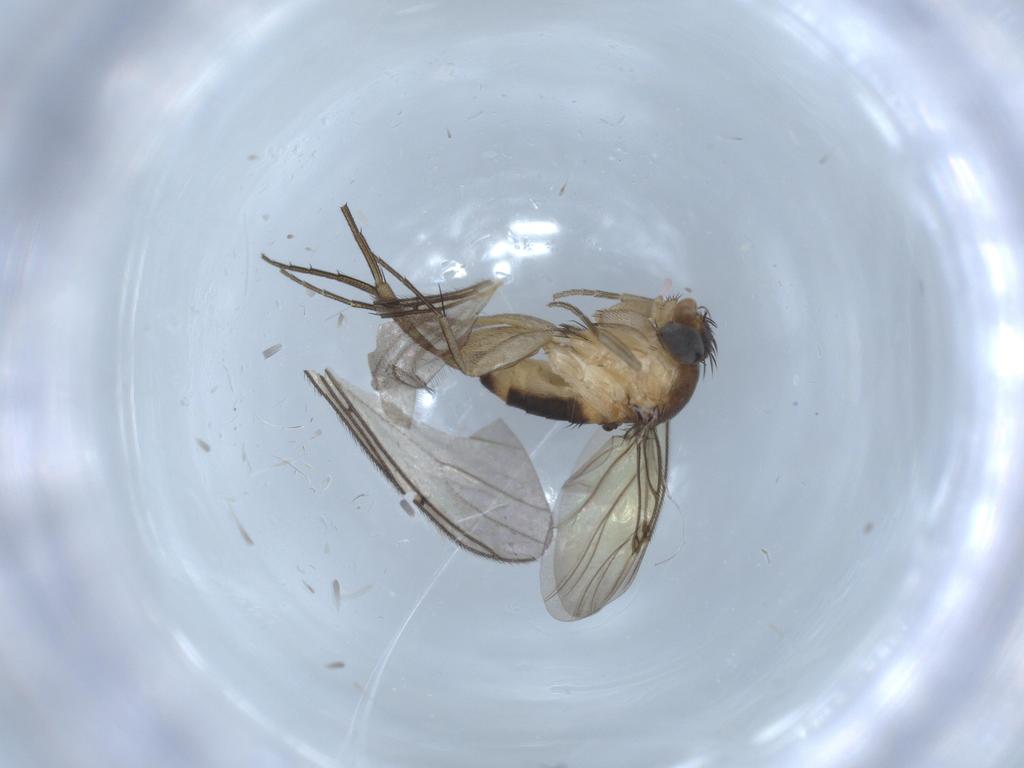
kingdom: Animalia
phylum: Arthropoda
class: Insecta
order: Diptera
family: Sciaridae
